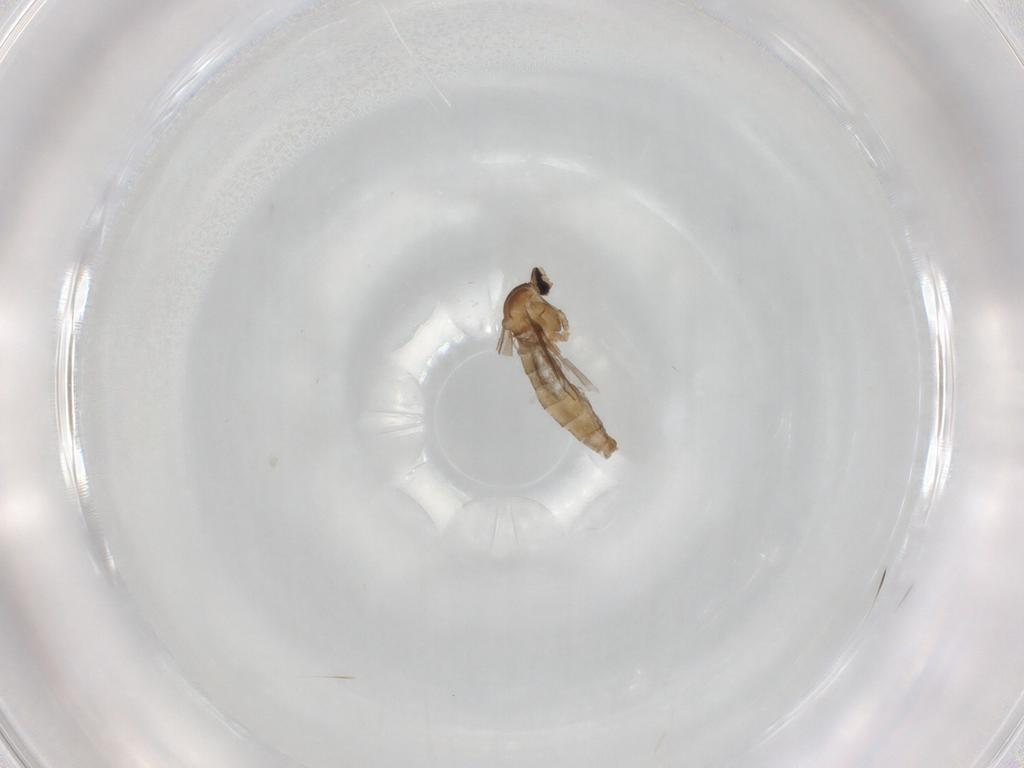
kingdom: Animalia
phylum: Arthropoda
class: Insecta
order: Diptera
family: Cecidomyiidae
